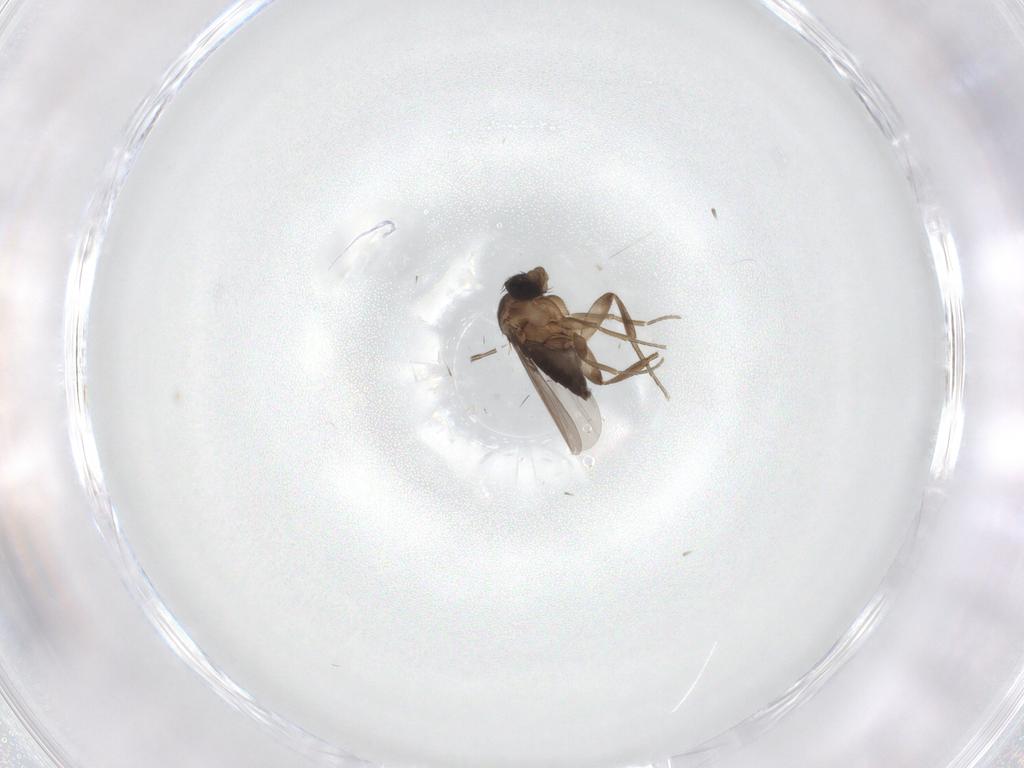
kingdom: Animalia
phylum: Arthropoda
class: Insecta
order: Diptera
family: Phoridae
